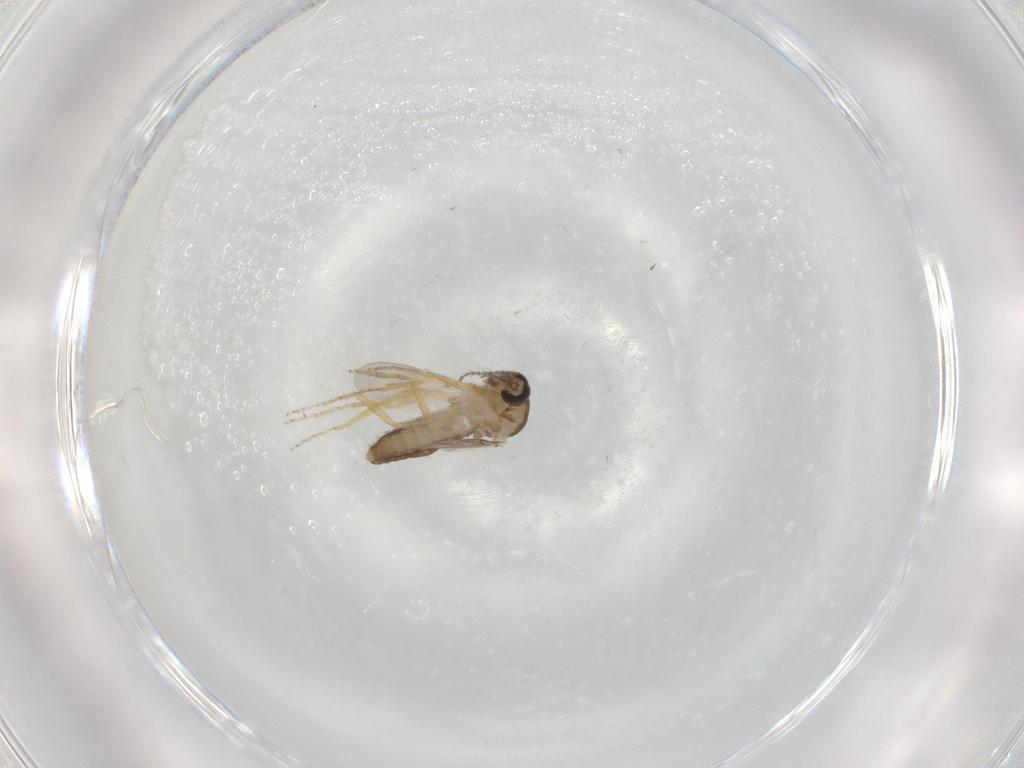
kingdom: Animalia
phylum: Arthropoda
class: Insecta
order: Diptera
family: Ceratopogonidae
